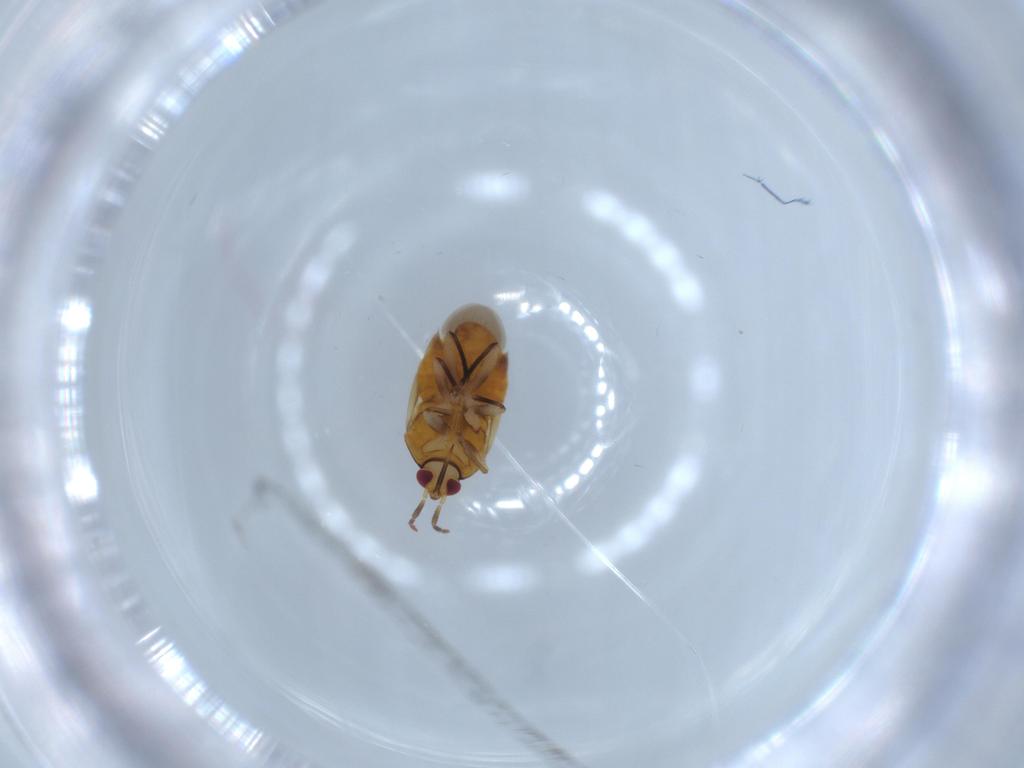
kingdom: Animalia
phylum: Arthropoda
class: Insecta
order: Hemiptera
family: Anthocoridae
